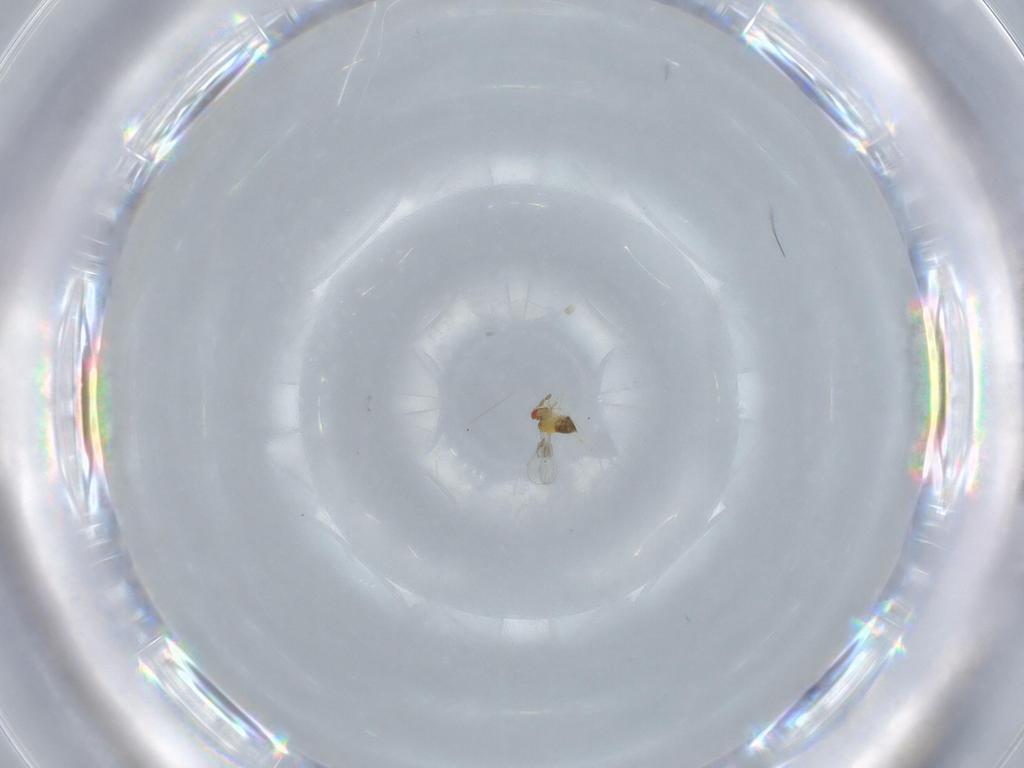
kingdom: Animalia
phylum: Arthropoda
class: Insecta
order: Hymenoptera
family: Trichogrammatidae
